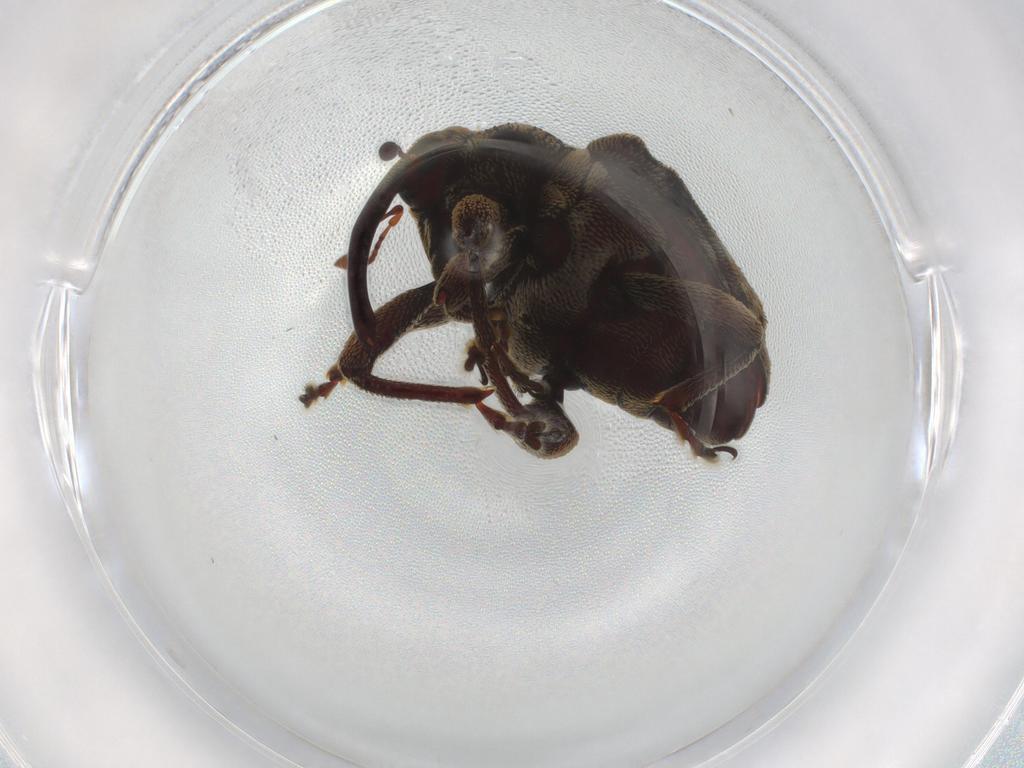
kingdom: Animalia
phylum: Arthropoda
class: Insecta
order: Coleoptera
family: Curculionidae
